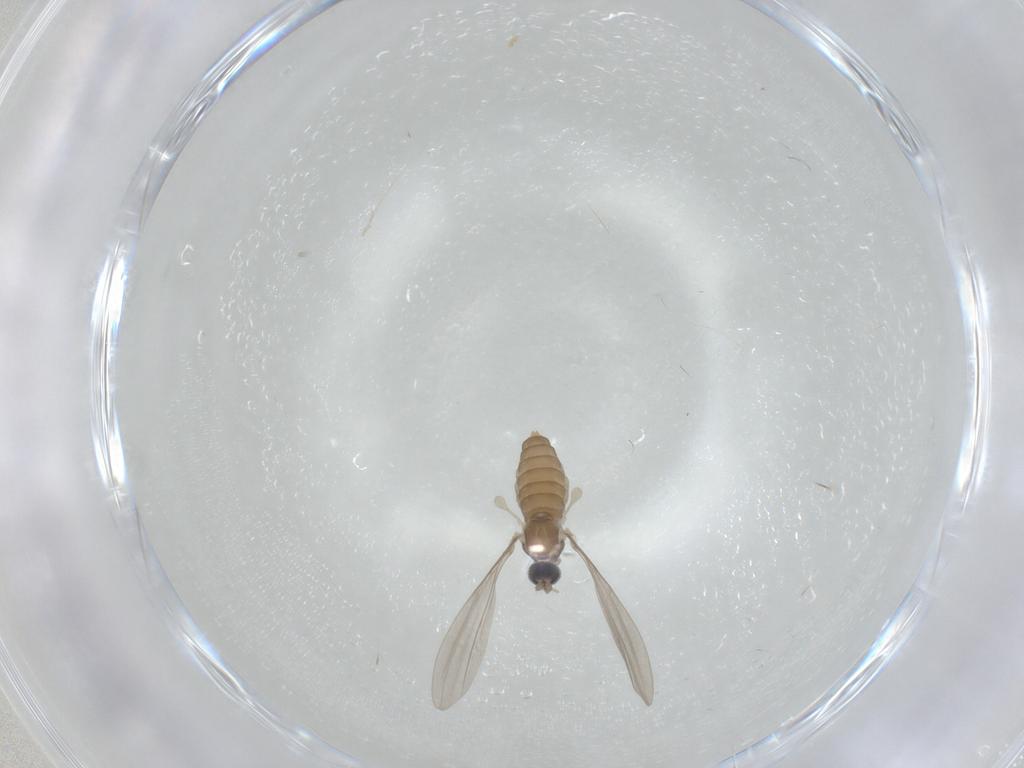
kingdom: Animalia
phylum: Arthropoda
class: Insecta
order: Diptera
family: Cecidomyiidae
